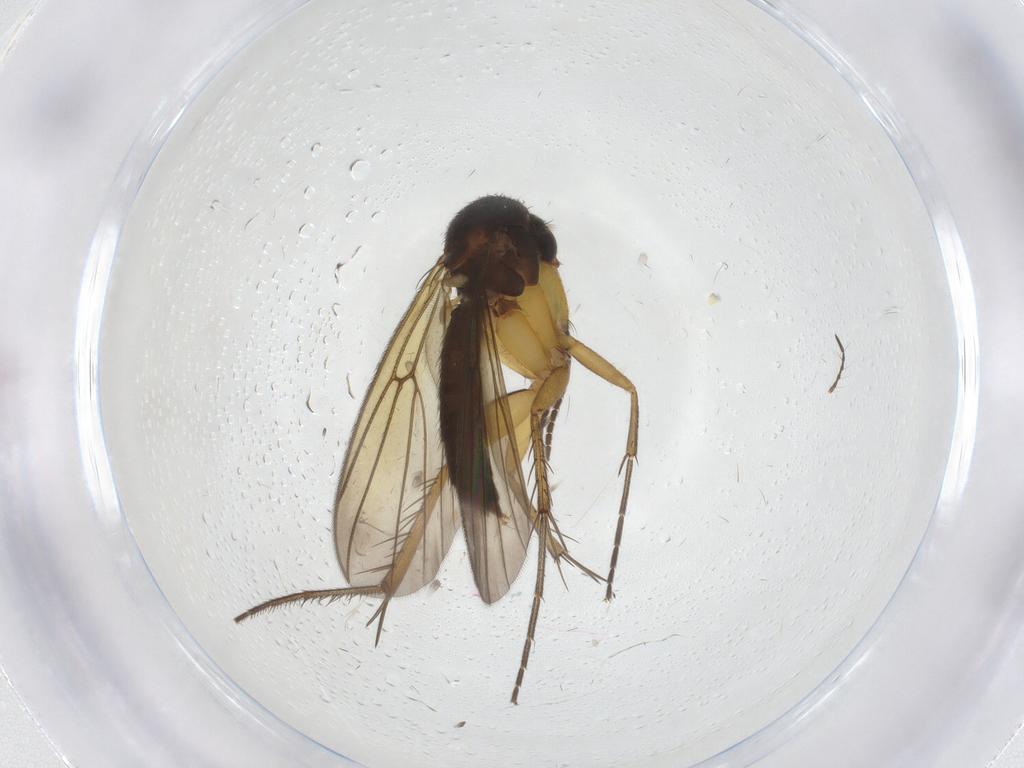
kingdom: Animalia
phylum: Arthropoda
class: Insecta
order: Diptera
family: Mycetophilidae
